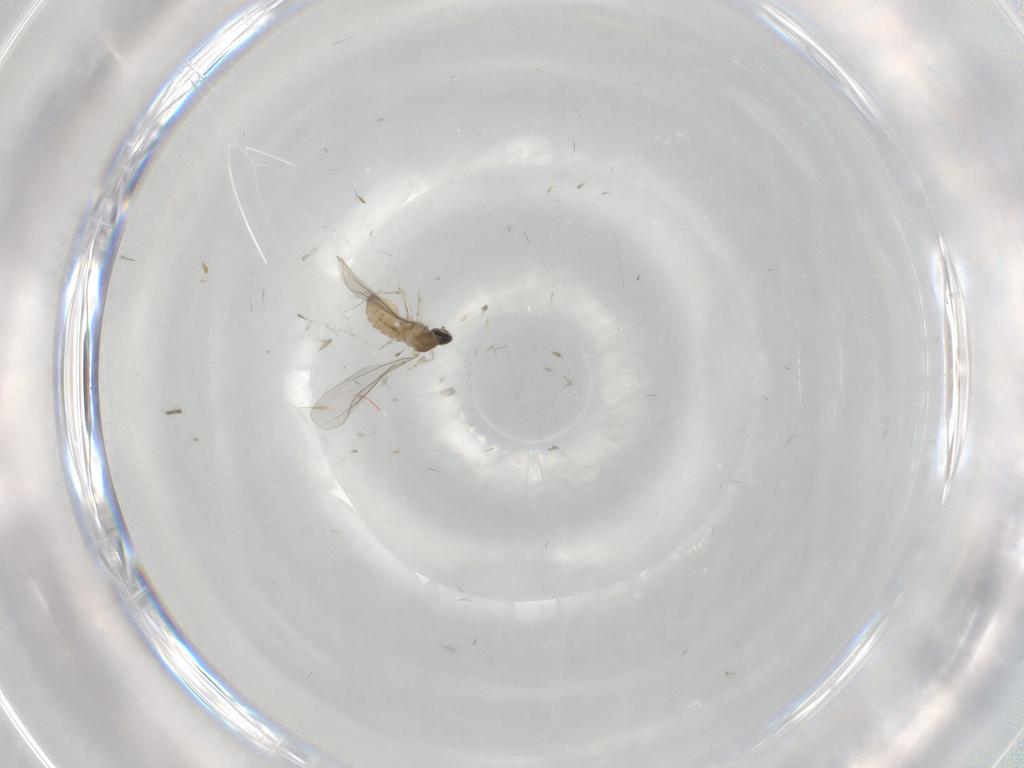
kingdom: Animalia
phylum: Arthropoda
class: Insecta
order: Diptera
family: Cecidomyiidae
